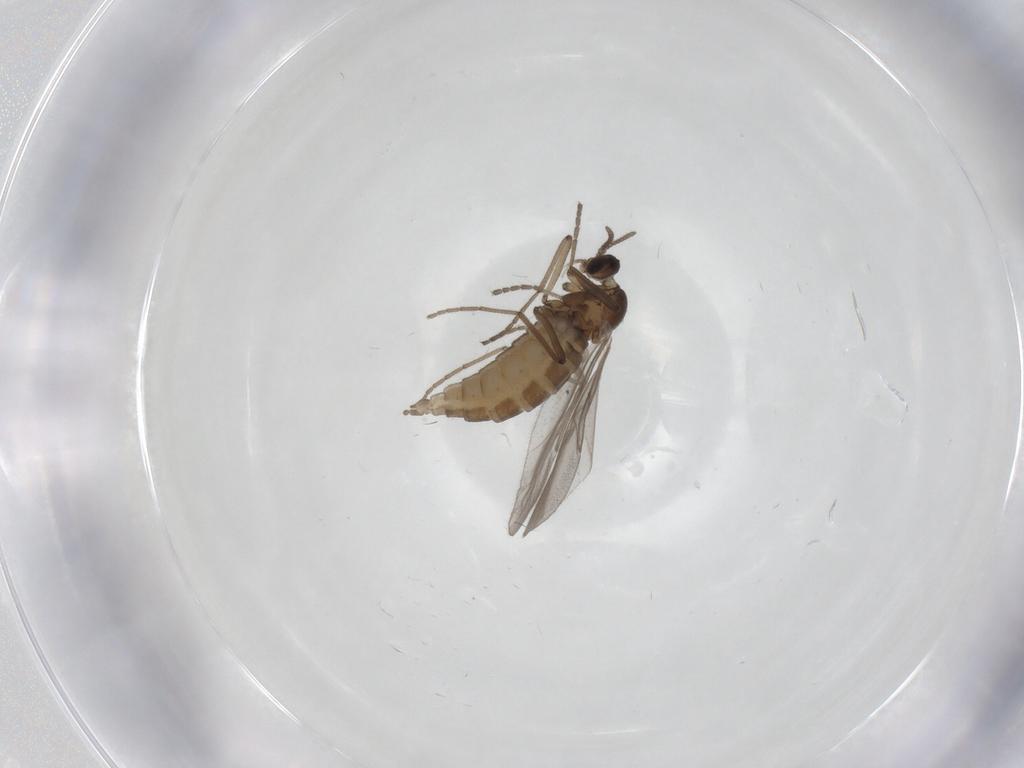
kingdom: Animalia
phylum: Arthropoda
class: Insecta
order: Diptera
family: Cecidomyiidae
